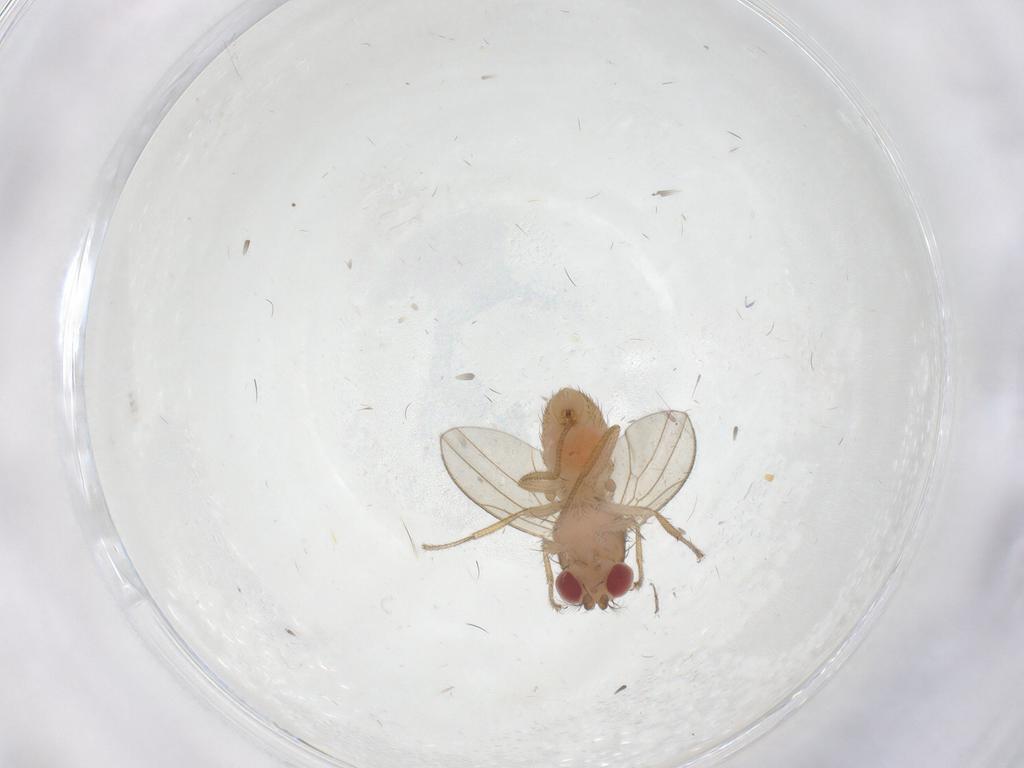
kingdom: Animalia
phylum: Arthropoda
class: Insecta
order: Diptera
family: Drosophilidae
